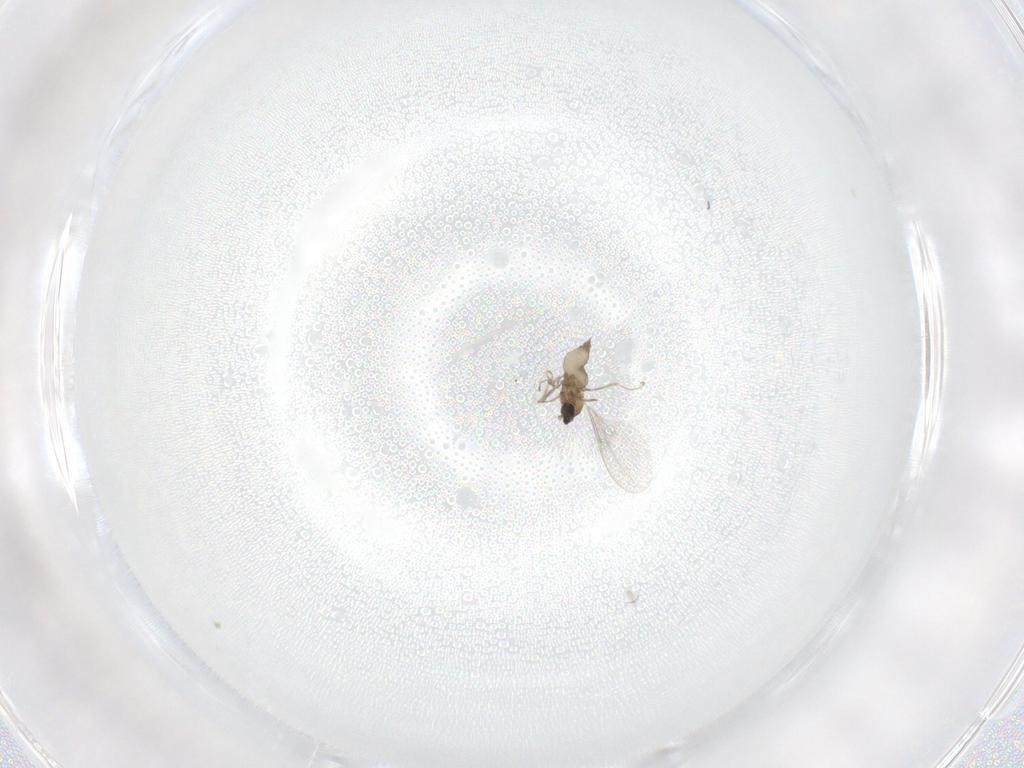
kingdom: Animalia
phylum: Arthropoda
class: Insecta
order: Diptera
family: Cecidomyiidae
